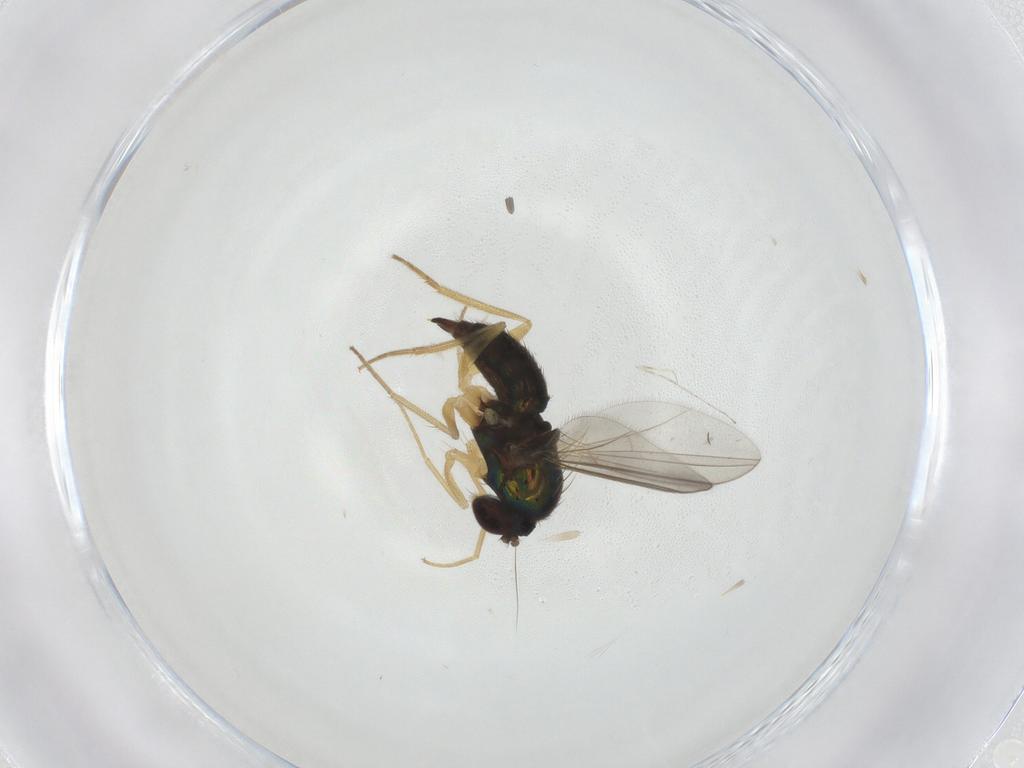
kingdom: Animalia
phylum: Arthropoda
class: Insecta
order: Diptera
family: Dolichopodidae
